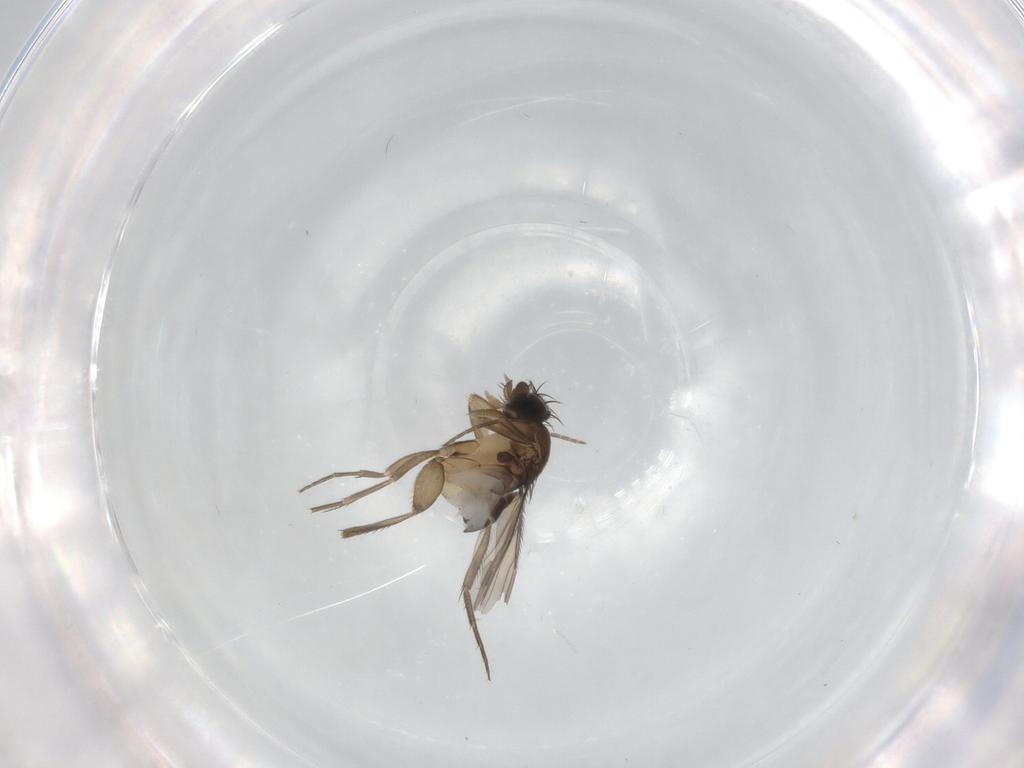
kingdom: Animalia
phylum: Arthropoda
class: Insecta
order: Diptera
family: Phoridae
